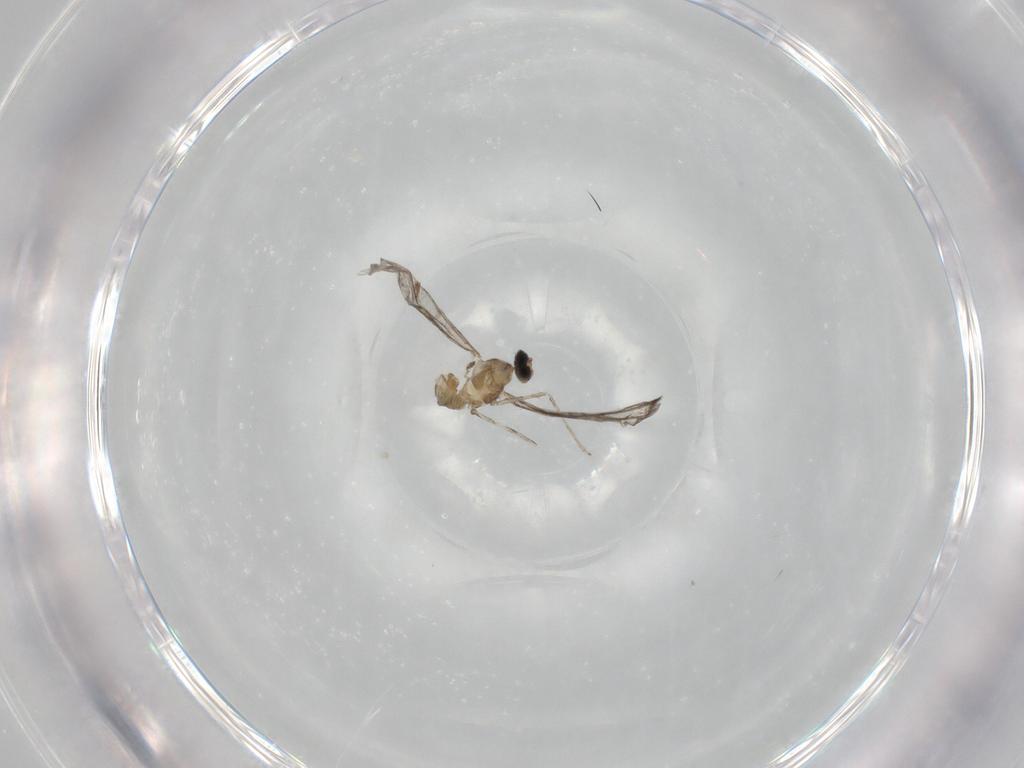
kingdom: Animalia
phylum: Arthropoda
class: Insecta
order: Diptera
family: Cecidomyiidae
